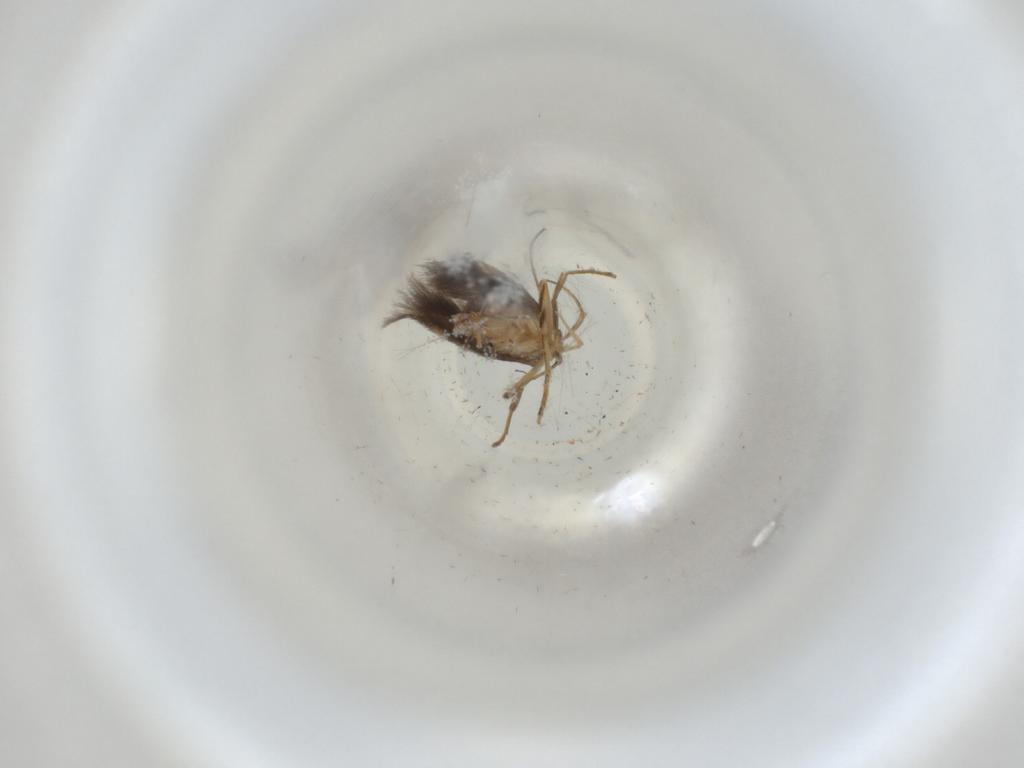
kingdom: Animalia
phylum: Arthropoda
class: Insecta
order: Lepidoptera
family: Cosmopterigidae
